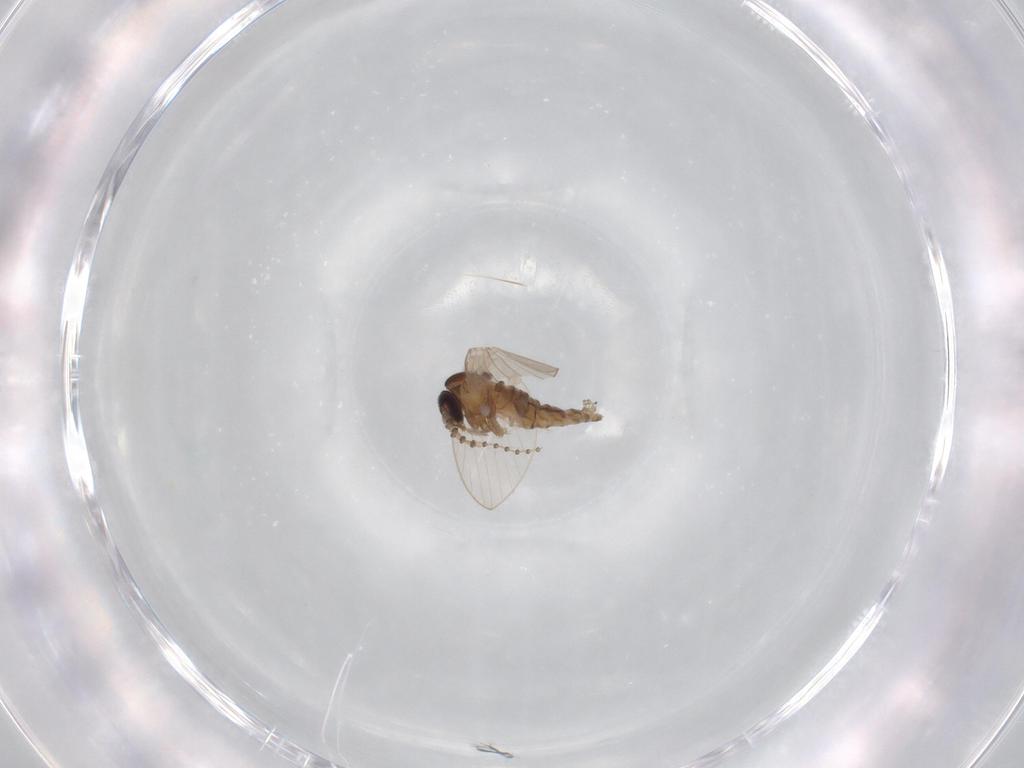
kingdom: Animalia
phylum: Arthropoda
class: Insecta
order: Diptera
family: Psychodidae
